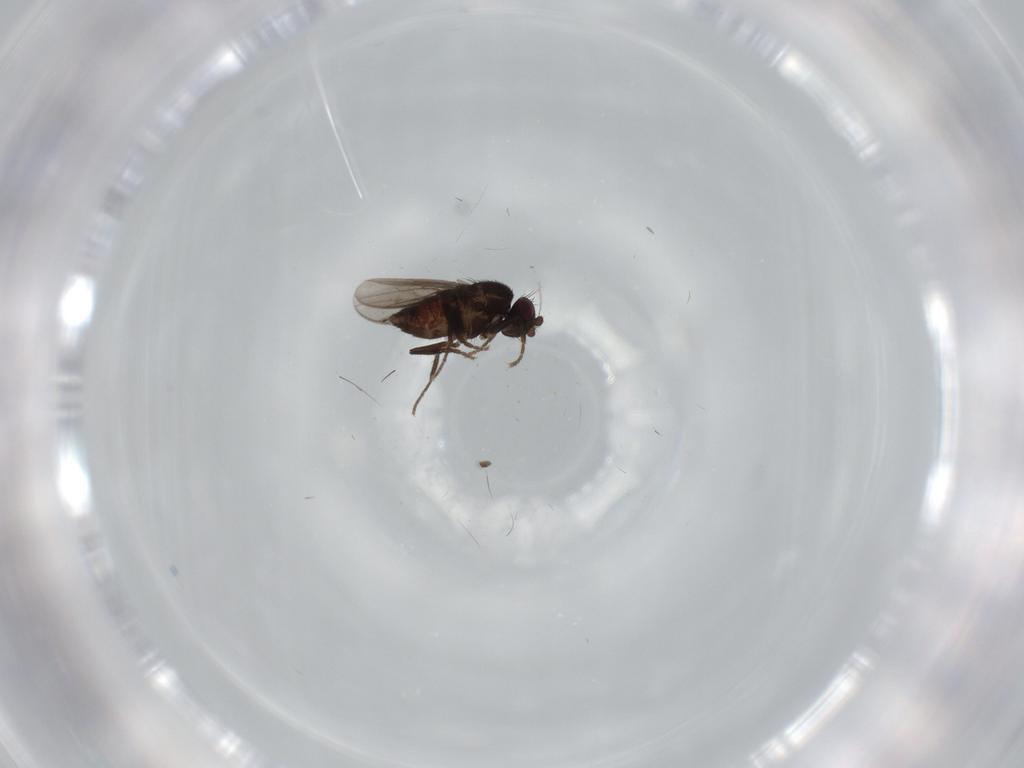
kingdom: Animalia
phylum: Arthropoda
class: Insecta
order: Diptera
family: Sphaeroceridae
